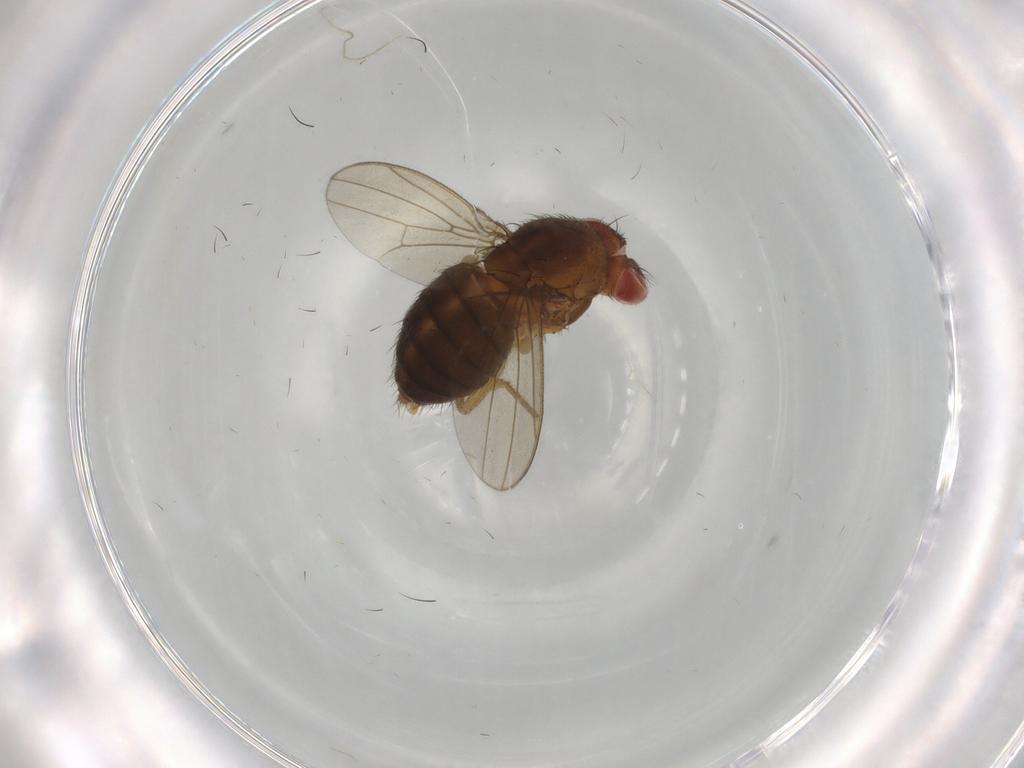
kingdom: Animalia
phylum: Arthropoda
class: Insecta
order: Diptera
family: Drosophilidae
